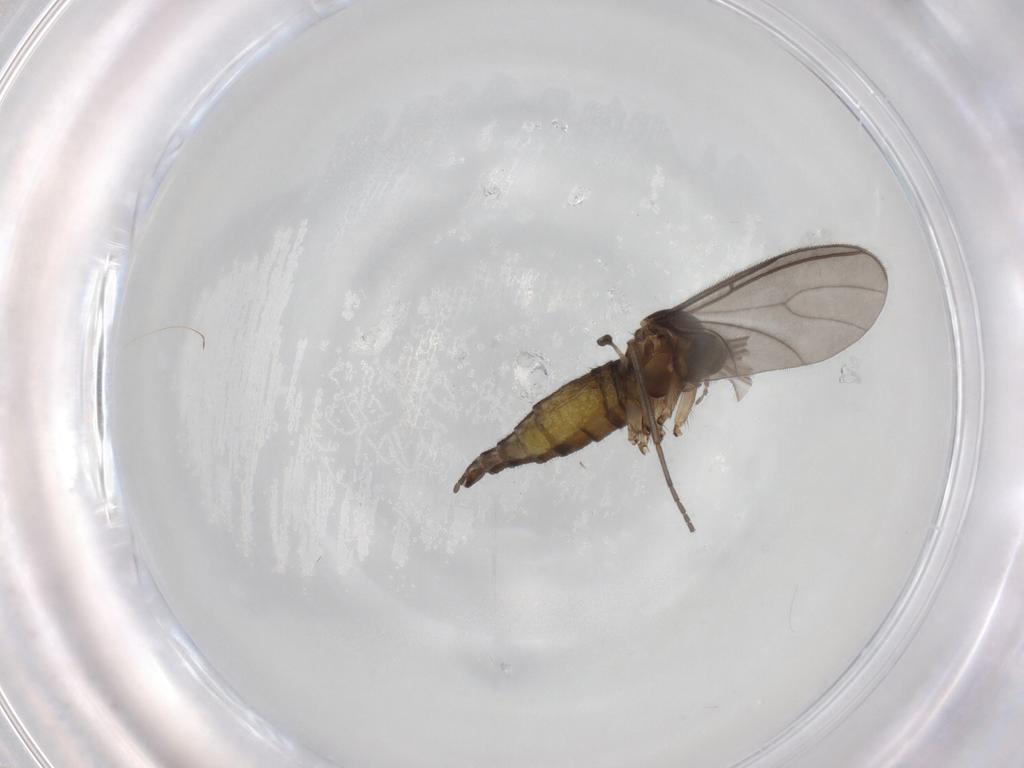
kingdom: Animalia
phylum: Arthropoda
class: Insecta
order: Diptera
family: Sciaridae
